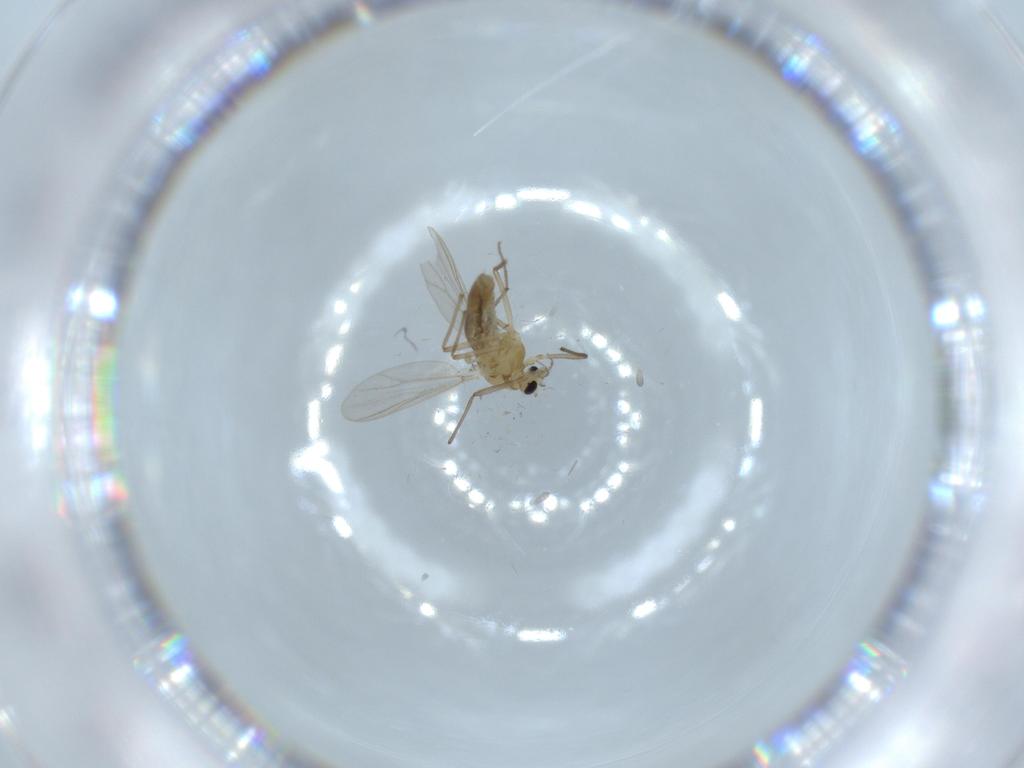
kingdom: Animalia
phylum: Arthropoda
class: Insecta
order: Diptera
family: Chironomidae
